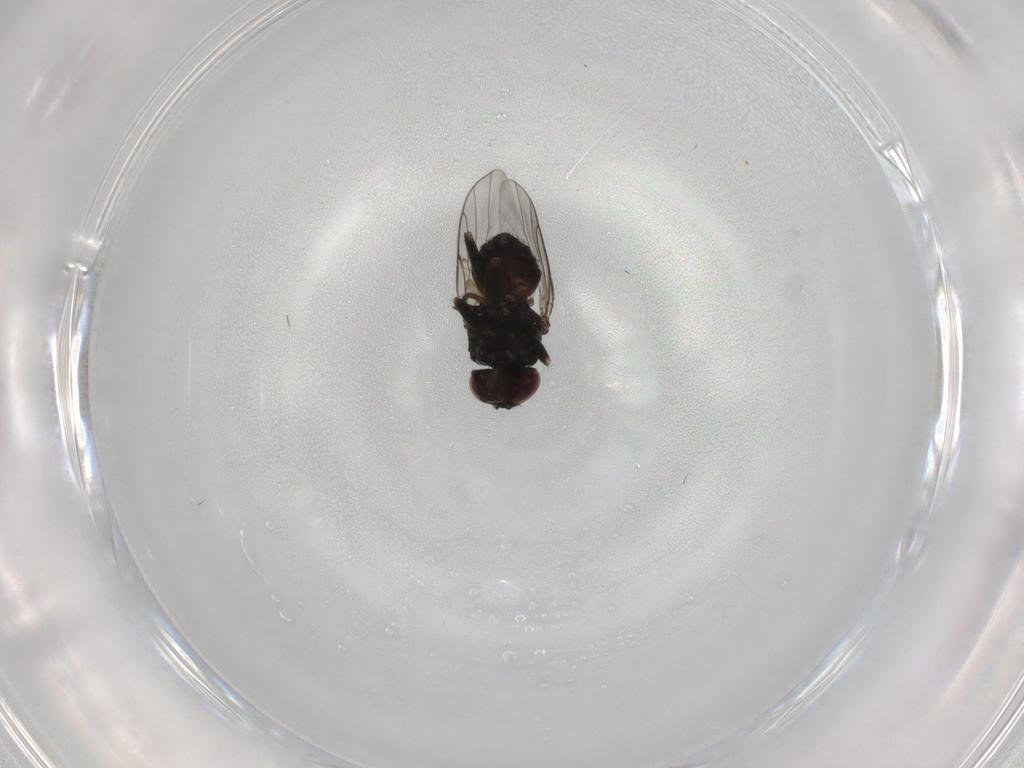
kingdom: Animalia
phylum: Arthropoda
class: Insecta
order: Diptera
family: Chloropidae
